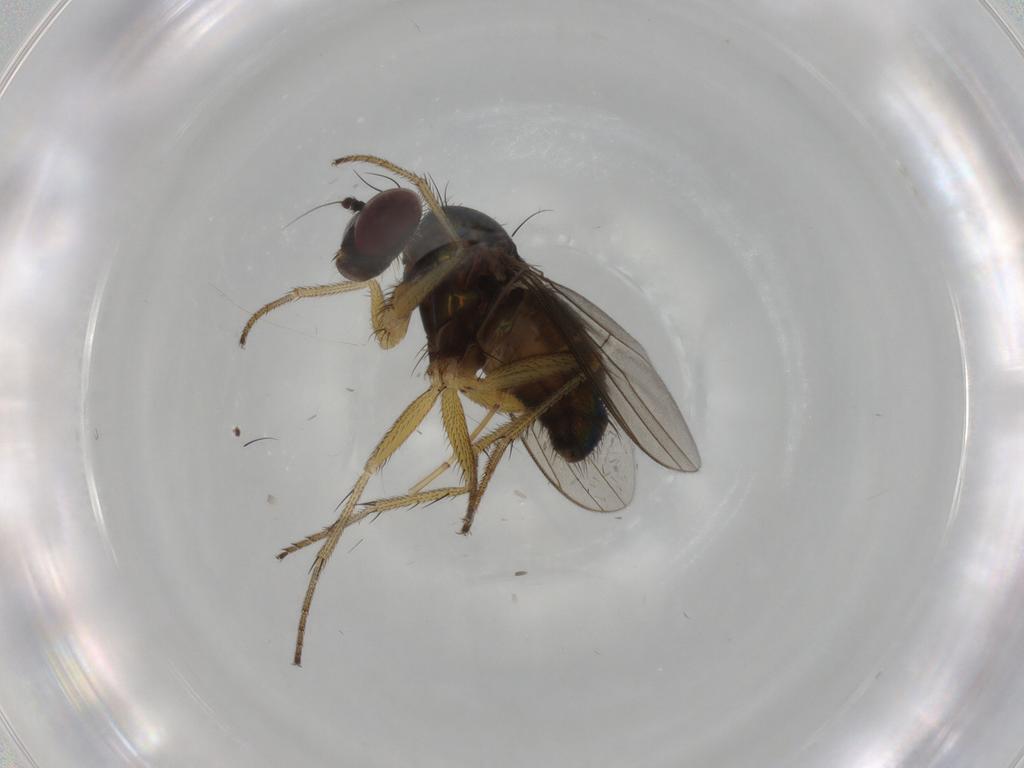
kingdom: Animalia
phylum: Arthropoda
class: Insecta
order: Diptera
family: Dolichopodidae
